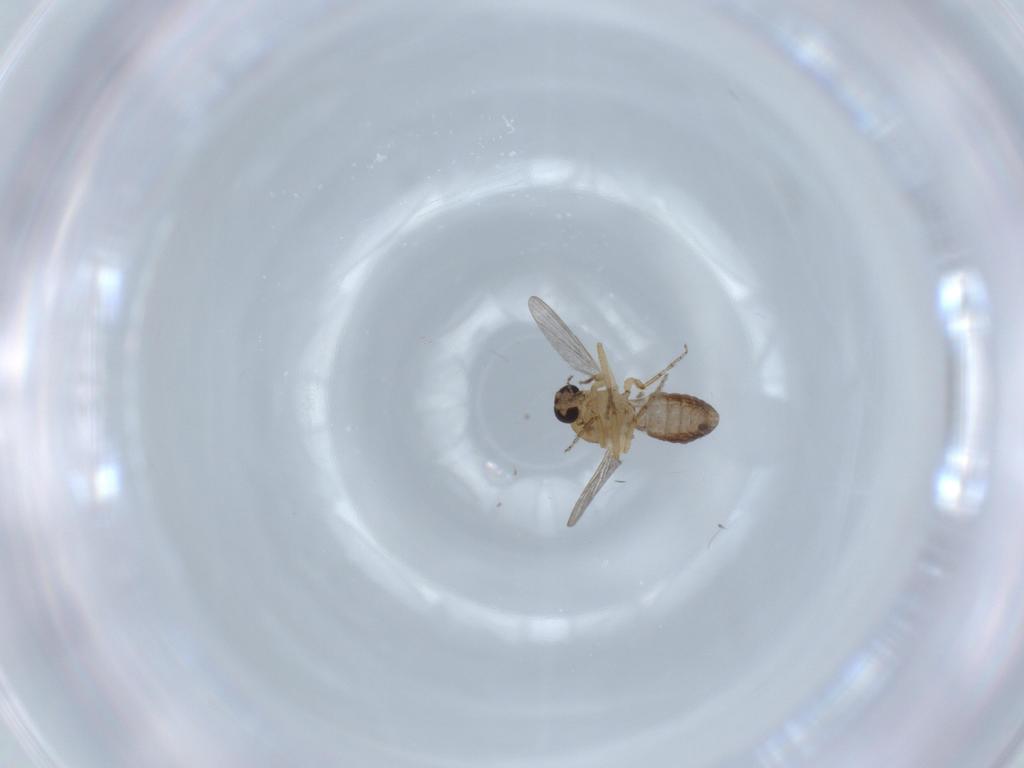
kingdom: Animalia
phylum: Arthropoda
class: Insecta
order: Diptera
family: Ceratopogonidae
